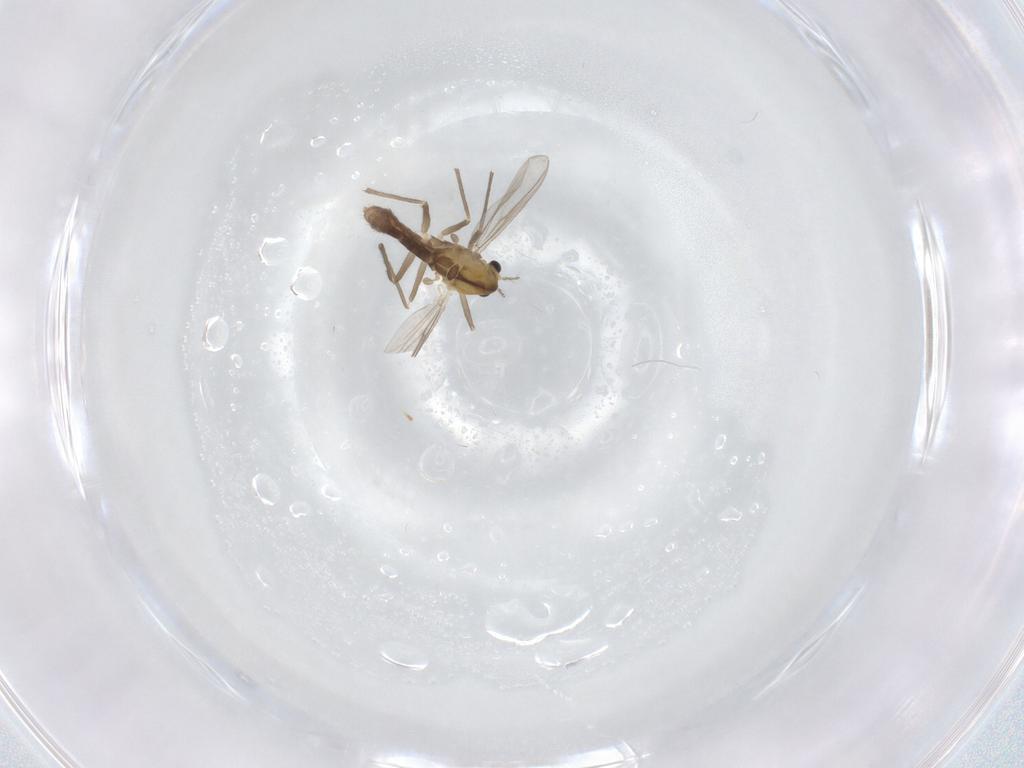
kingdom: Animalia
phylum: Arthropoda
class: Insecta
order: Diptera
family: Chironomidae
